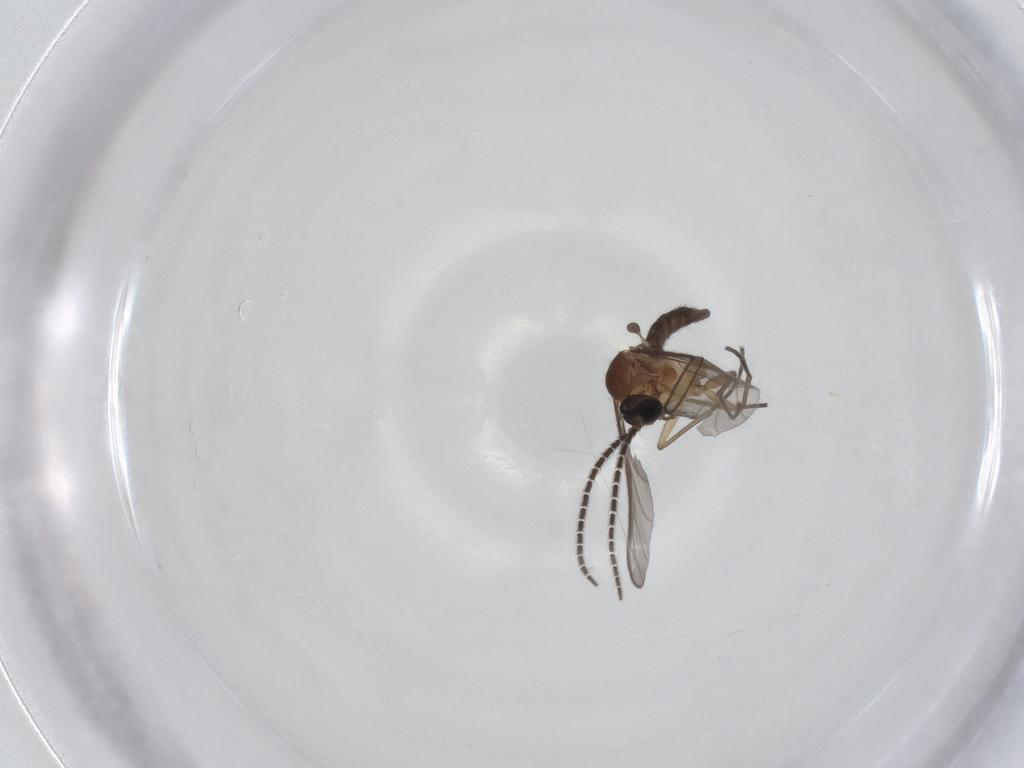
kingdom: Animalia
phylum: Arthropoda
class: Insecta
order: Diptera
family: Sciaridae
